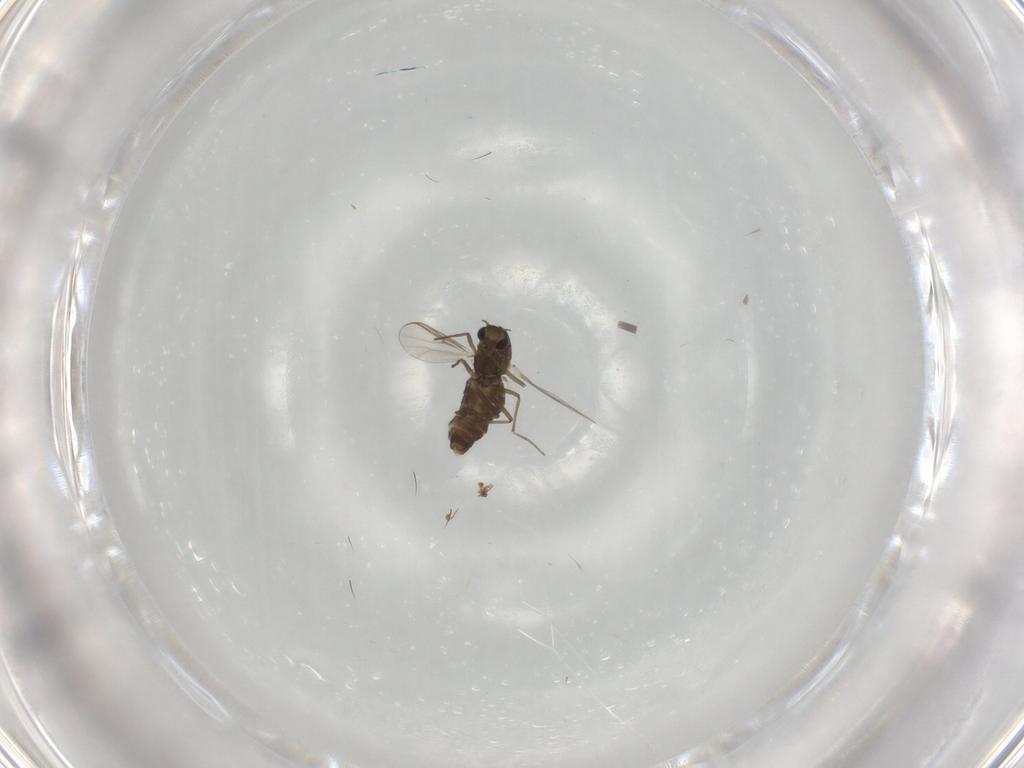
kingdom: Animalia
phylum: Arthropoda
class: Insecta
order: Diptera
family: Chironomidae
